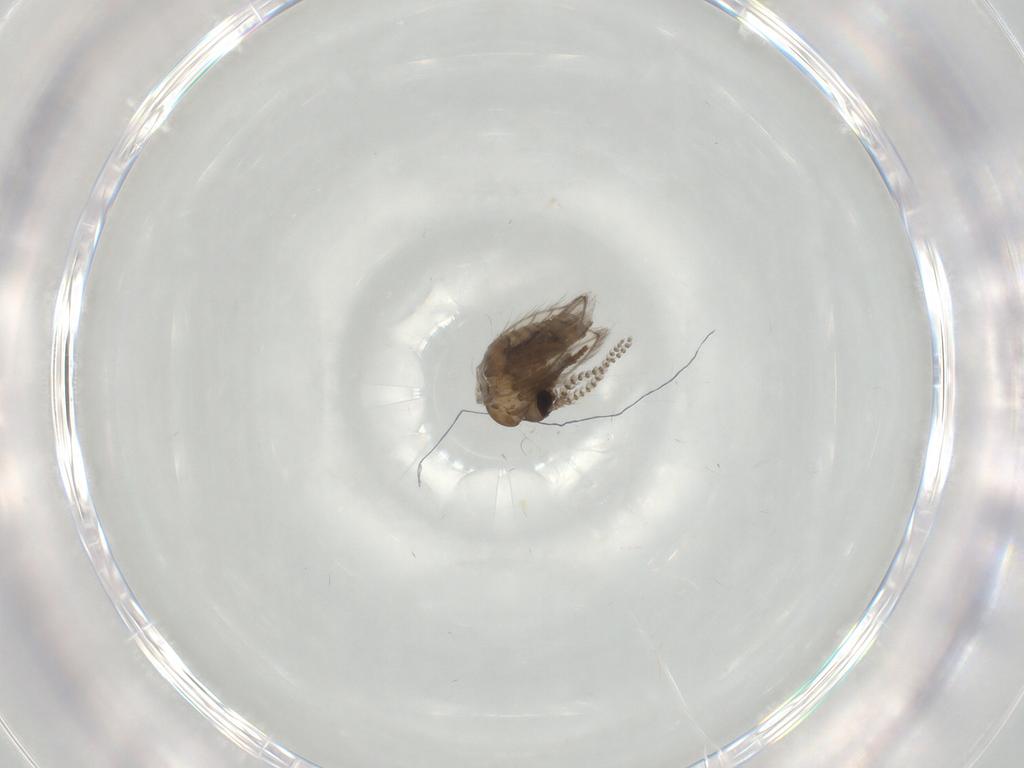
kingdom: Animalia
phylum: Arthropoda
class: Insecta
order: Diptera
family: Psychodidae
